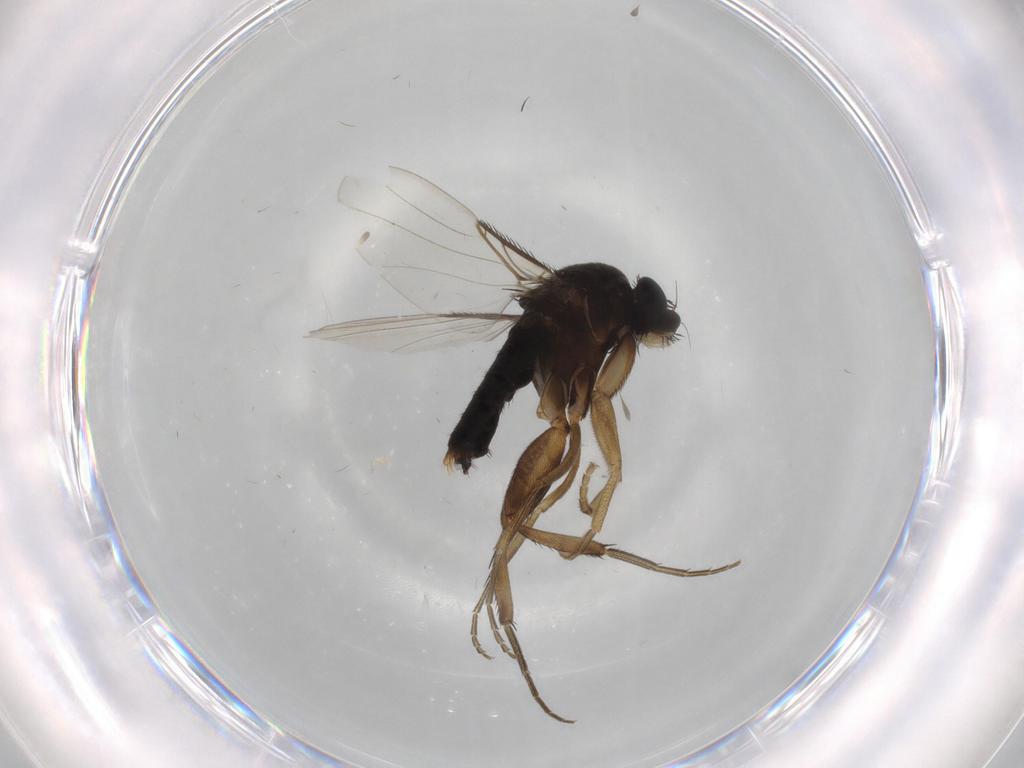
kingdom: Animalia
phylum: Arthropoda
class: Insecta
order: Diptera
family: Phoridae
